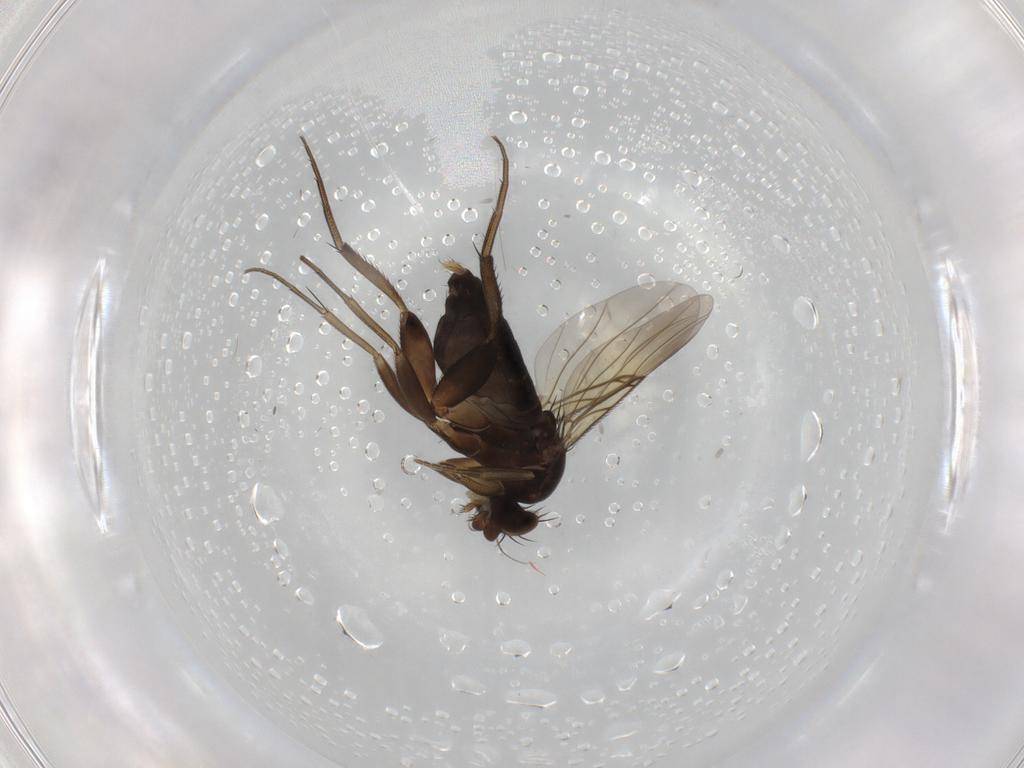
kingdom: Animalia
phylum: Arthropoda
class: Insecta
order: Diptera
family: Phoridae
